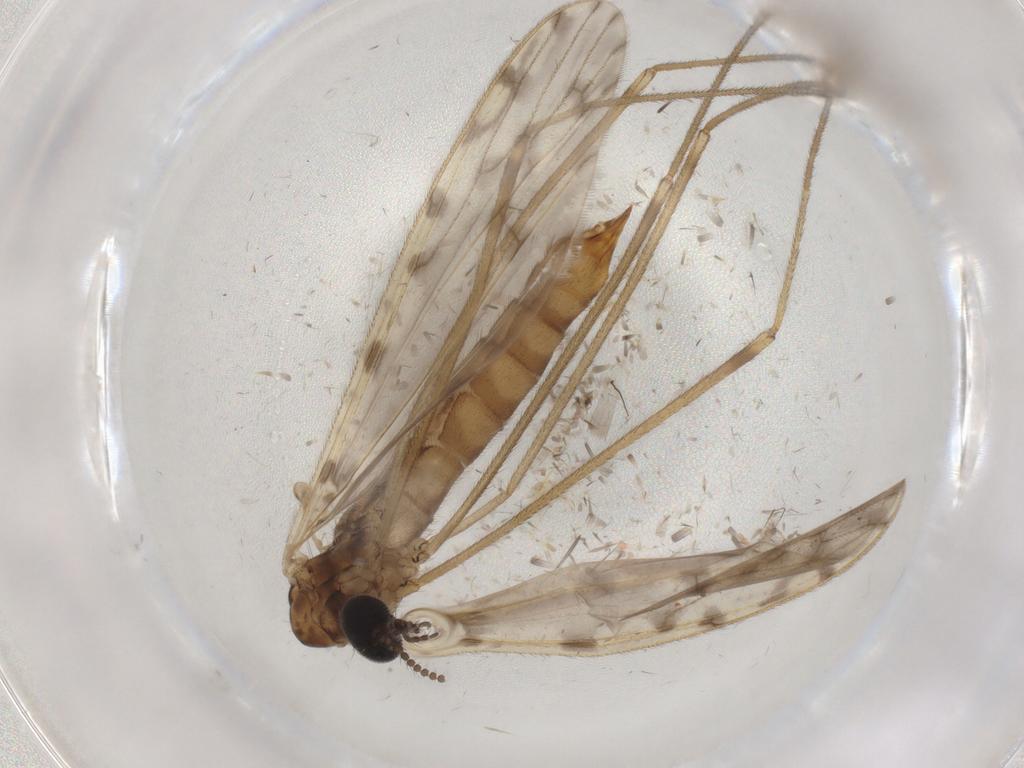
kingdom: Animalia
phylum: Arthropoda
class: Insecta
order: Diptera
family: Limoniidae
